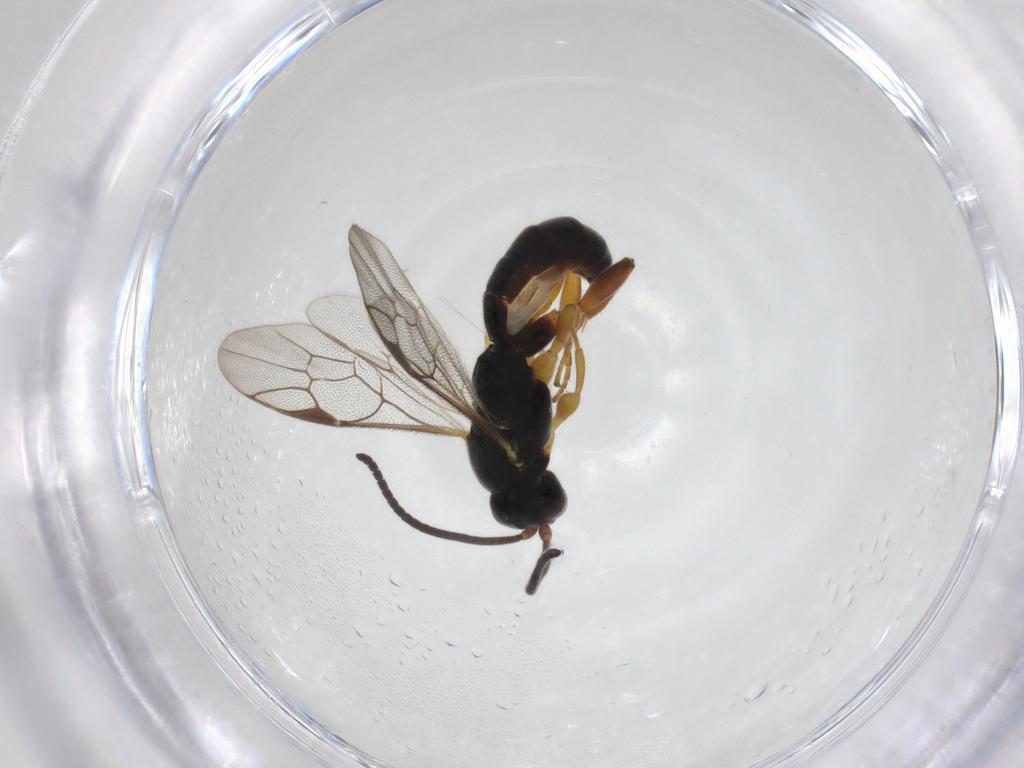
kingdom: Animalia
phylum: Arthropoda
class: Insecta
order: Hymenoptera
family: Ichneumonidae
